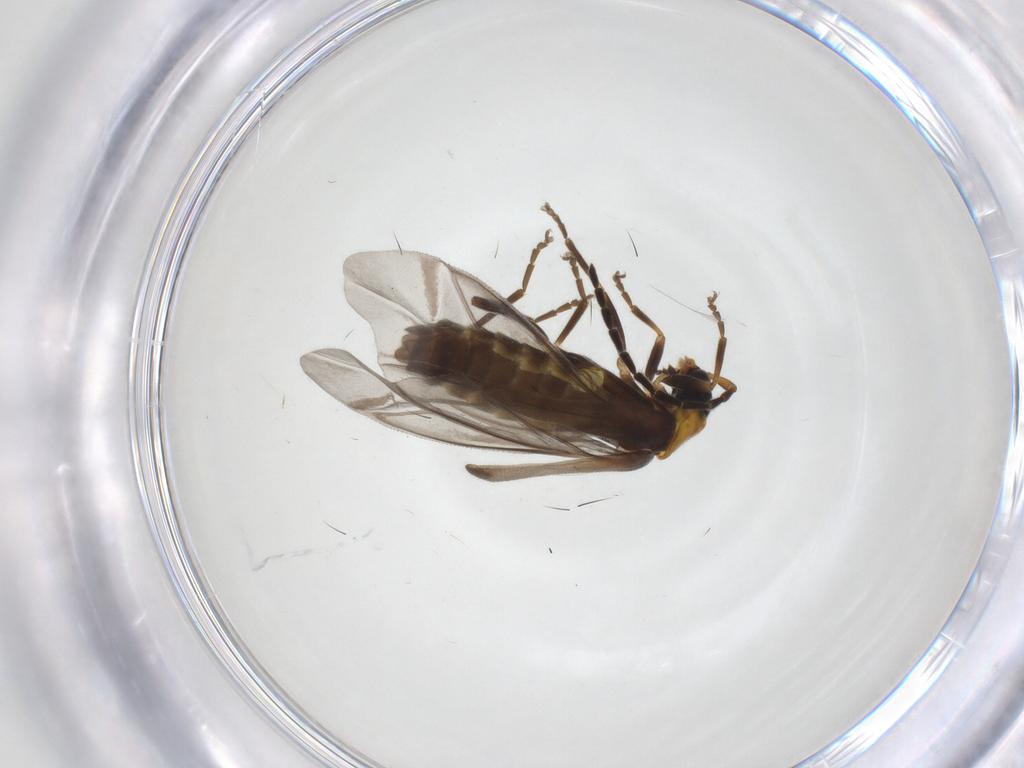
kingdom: Animalia
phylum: Arthropoda
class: Insecta
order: Coleoptera
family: Cantharidae
